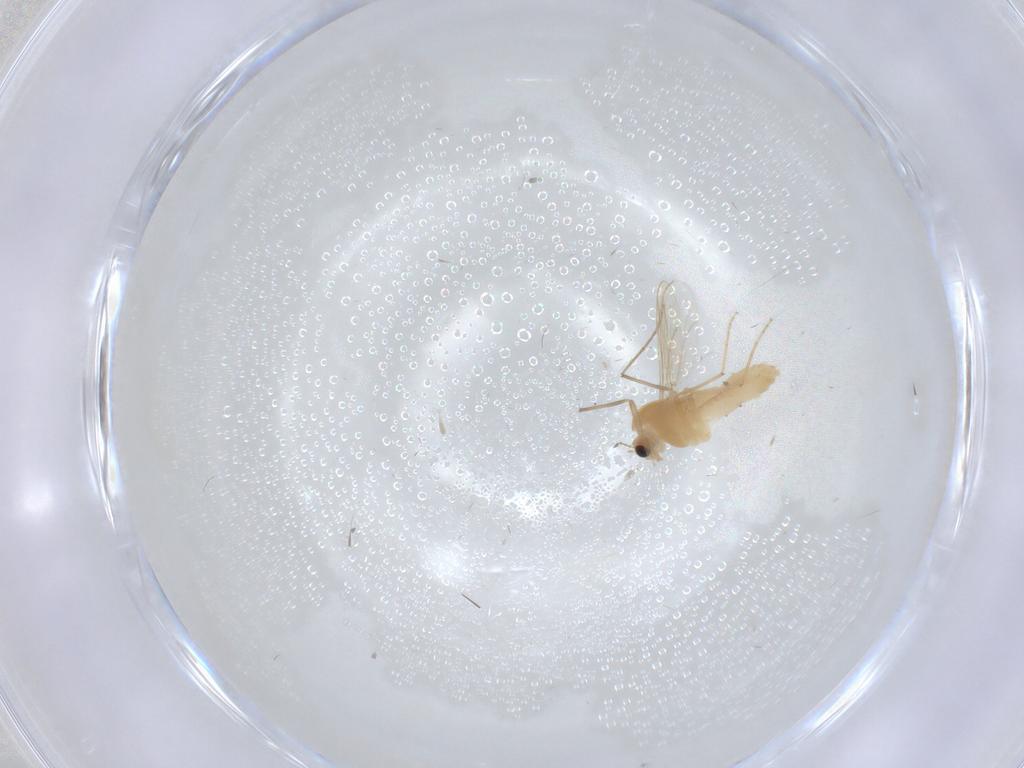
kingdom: Animalia
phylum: Arthropoda
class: Insecta
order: Diptera
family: Chironomidae
